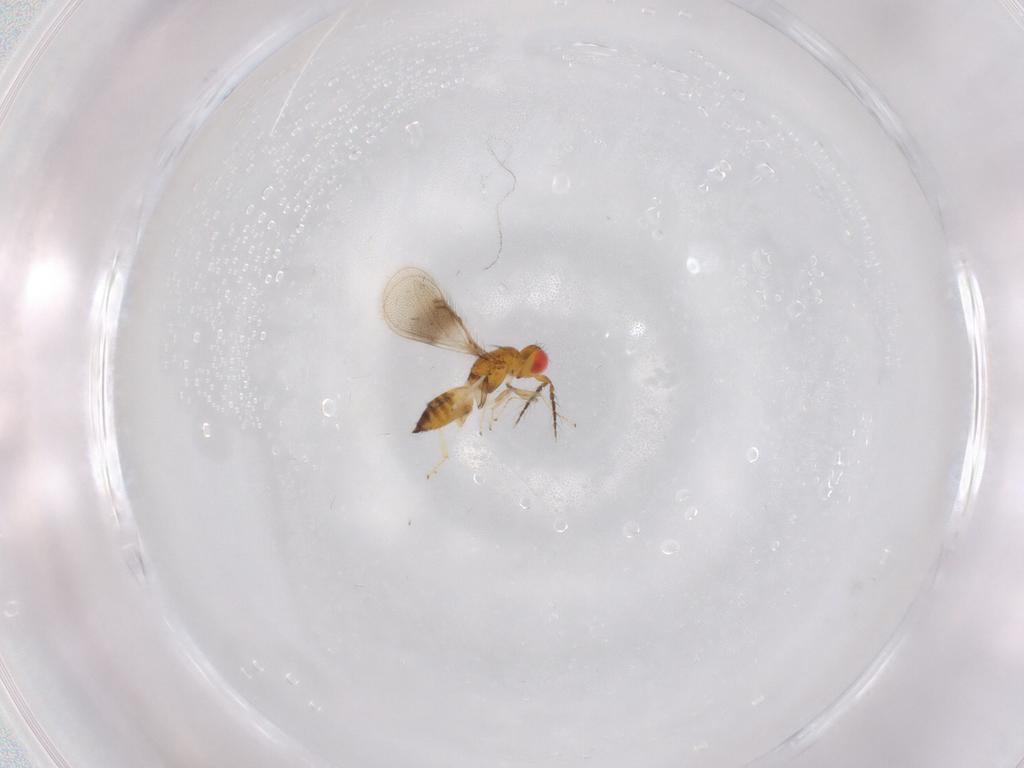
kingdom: Animalia
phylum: Arthropoda
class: Insecta
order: Hymenoptera
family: Eulophidae
